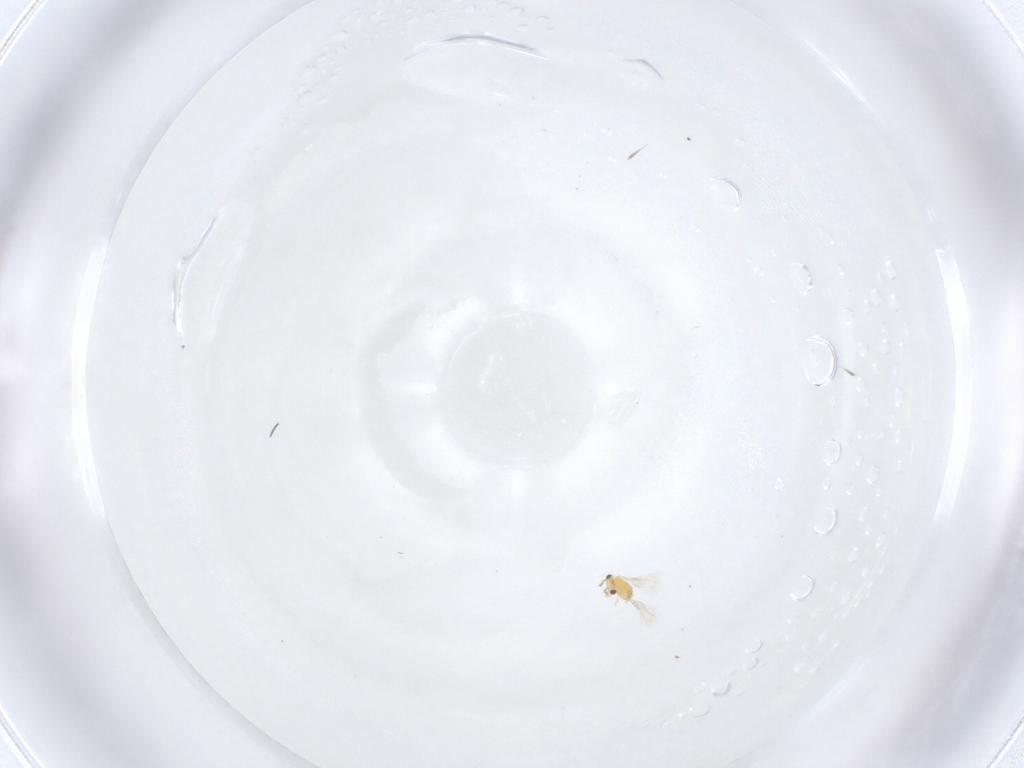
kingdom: Animalia
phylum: Arthropoda
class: Insecta
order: Hymenoptera
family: Aphelinidae
